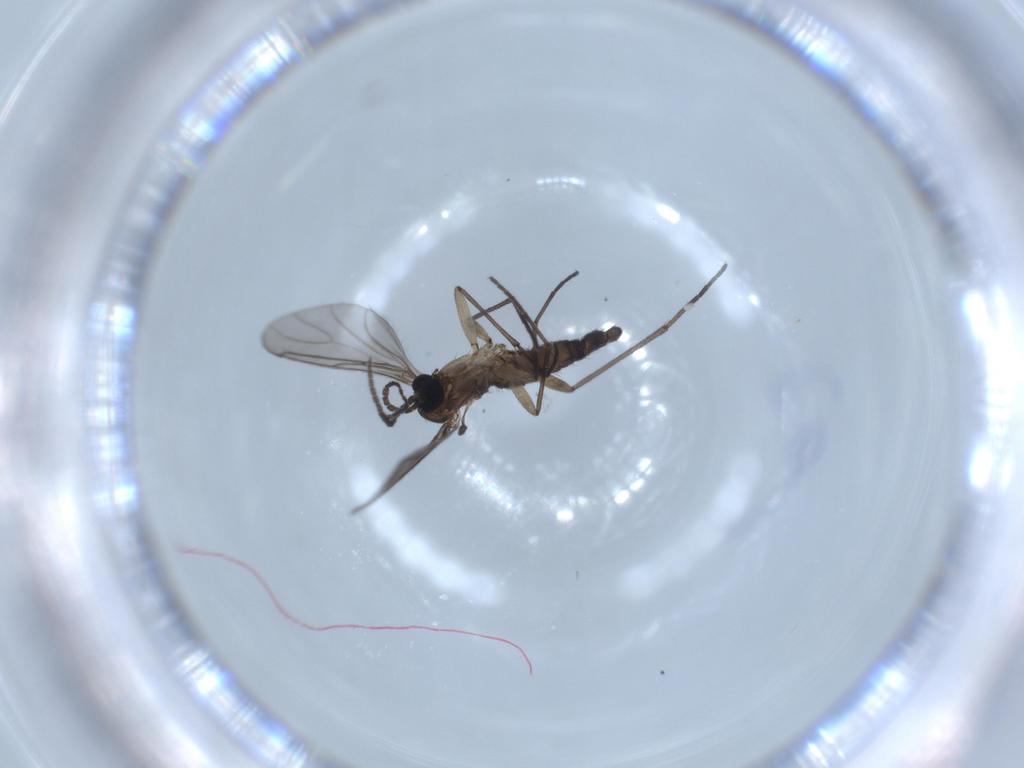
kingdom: Animalia
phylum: Arthropoda
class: Insecta
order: Diptera
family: Sciaridae
